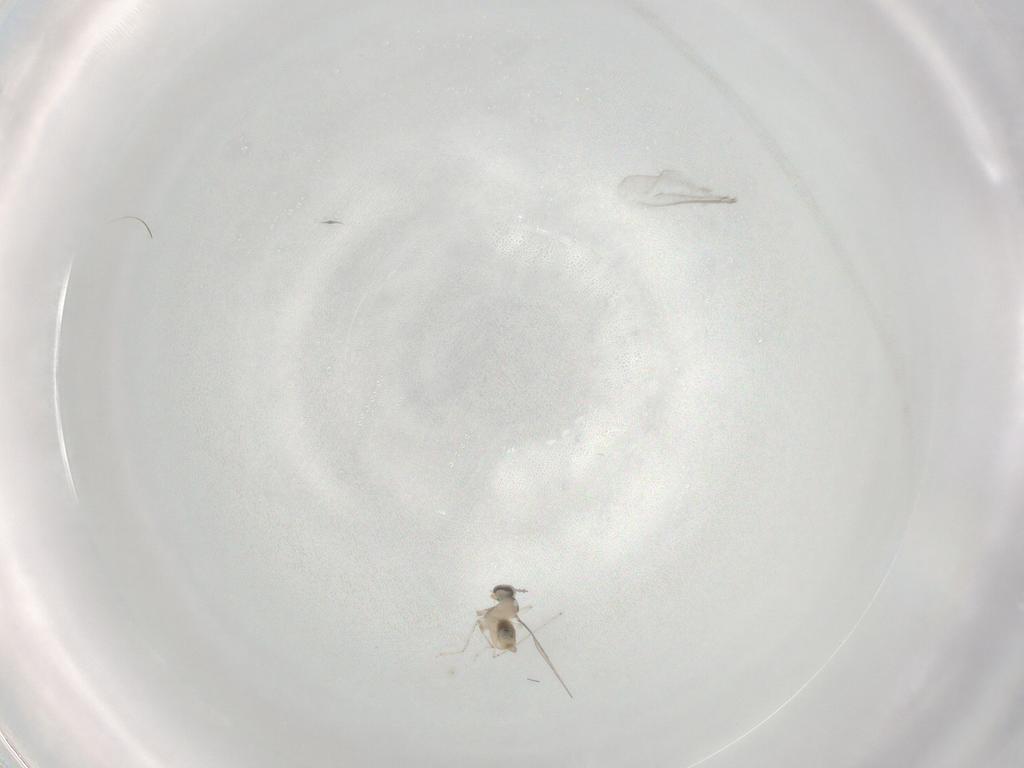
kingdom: Animalia
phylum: Arthropoda
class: Insecta
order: Diptera
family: Cecidomyiidae
